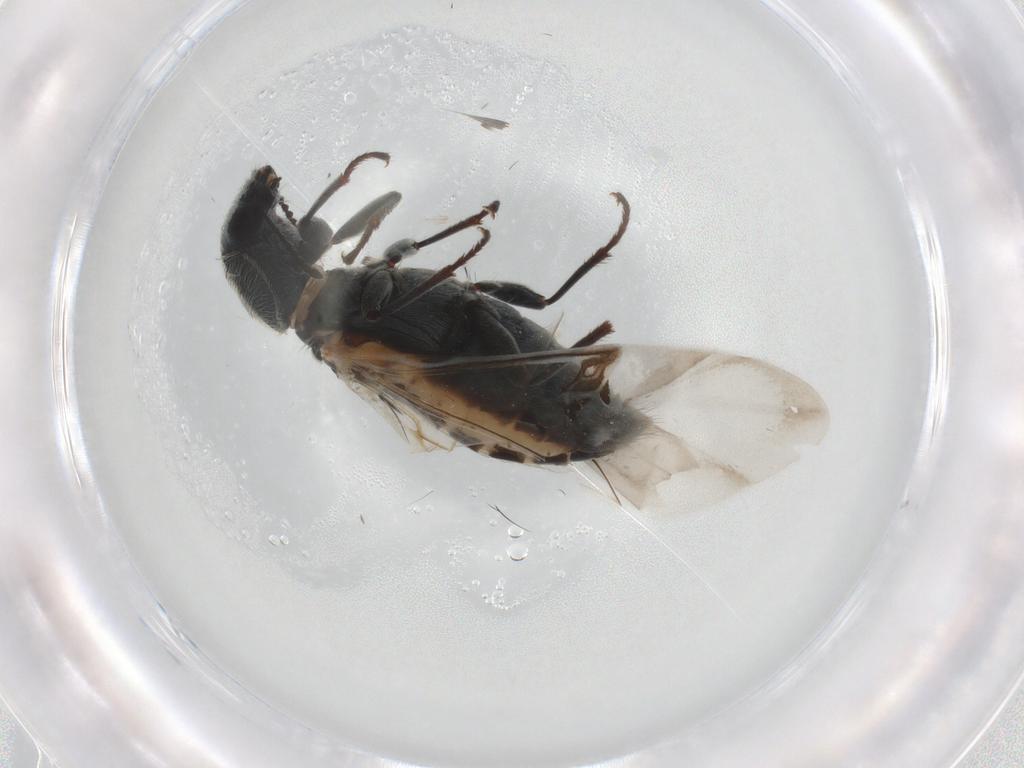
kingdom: Animalia
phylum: Arthropoda
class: Insecta
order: Coleoptera
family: Melyridae
